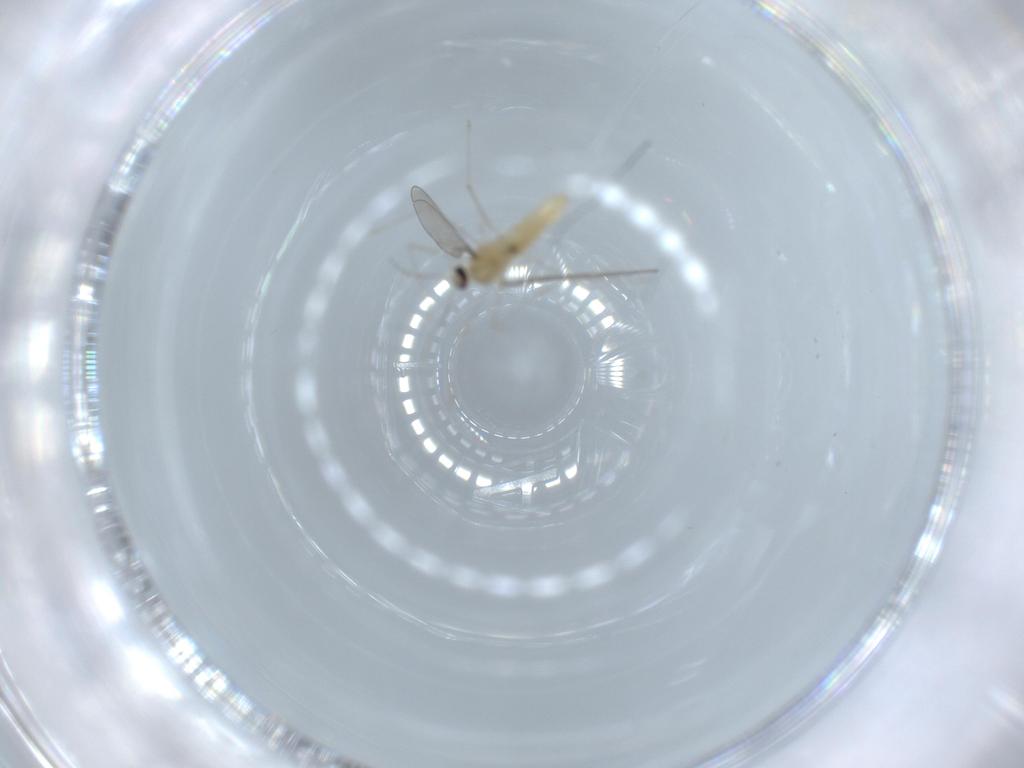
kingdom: Animalia
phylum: Arthropoda
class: Insecta
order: Diptera
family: Cecidomyiidae
